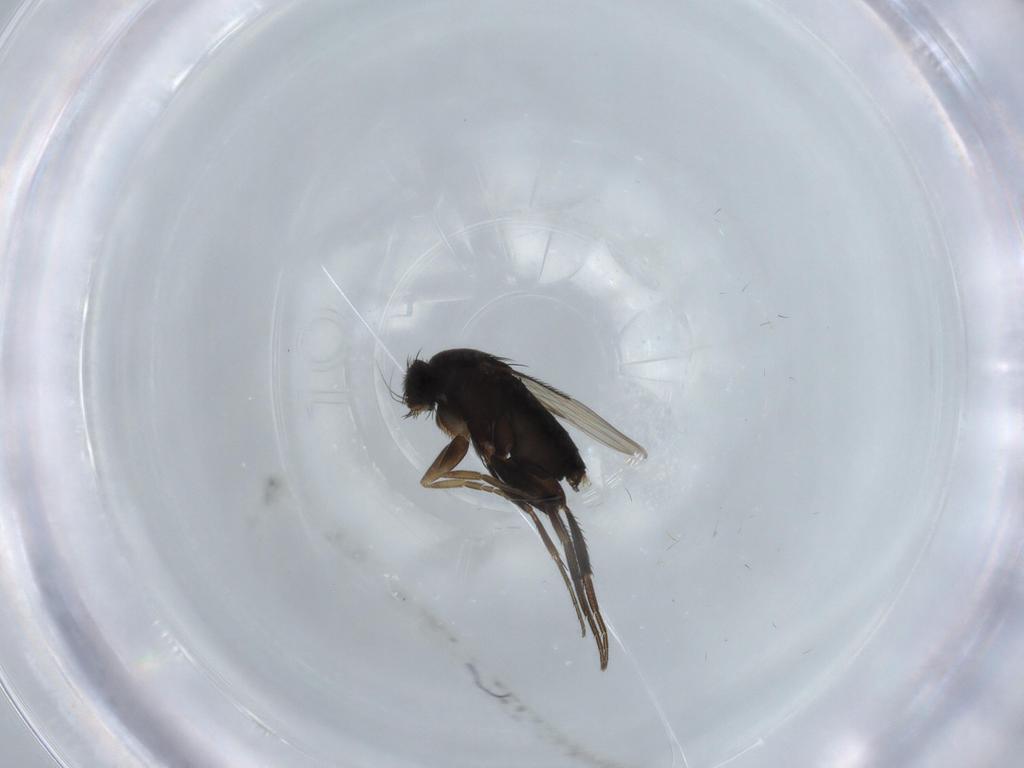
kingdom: Animalia
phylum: Arthropoda
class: Insecta
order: Diptera
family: Phoridae
